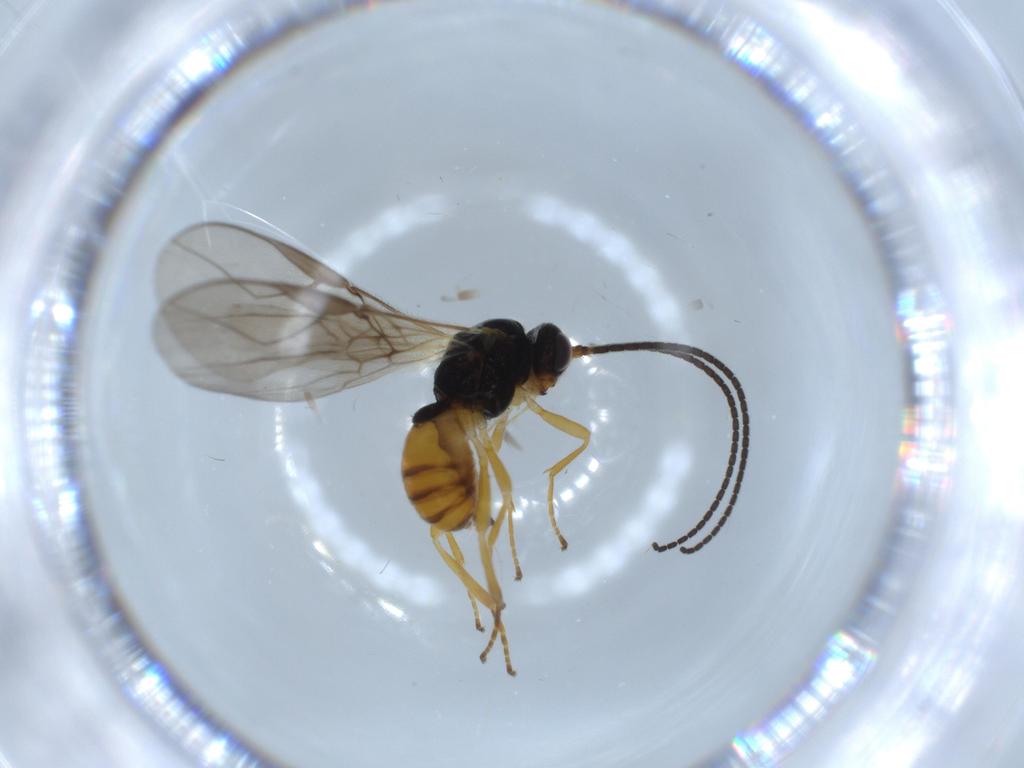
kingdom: Animalia
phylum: Arthropoda
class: Insecta
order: Hymenoptera
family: Braconidae
